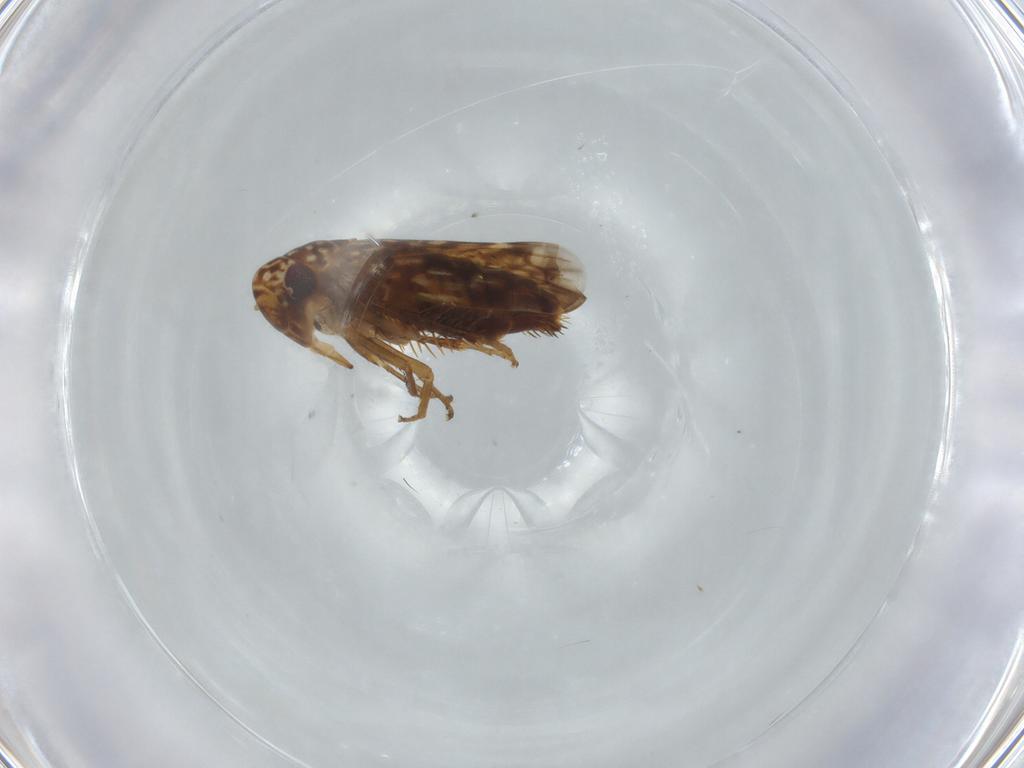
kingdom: Animalia
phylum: Arthropoda
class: Insecta
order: Hemiptera
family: Cicadellidae
